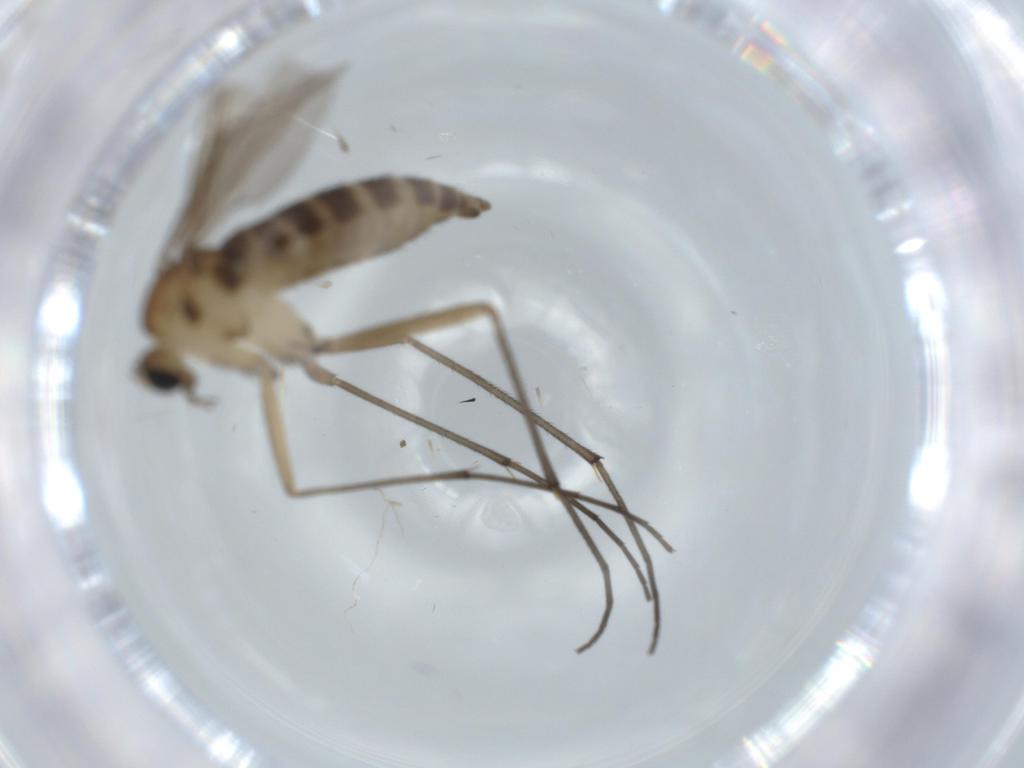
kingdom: Animalia
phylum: Arthropoda
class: Insecta
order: Diptera
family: Sciaridae
